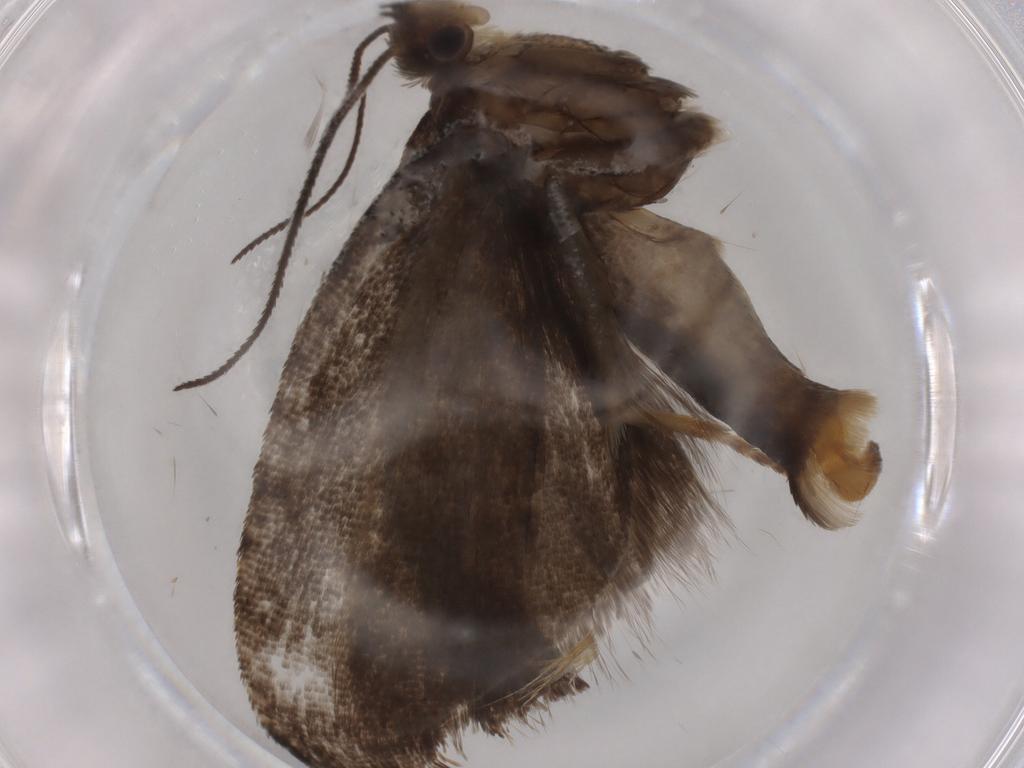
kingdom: Animalia
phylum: Arthropoda
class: Insecta
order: Lepidoptera
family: Tortricidae
